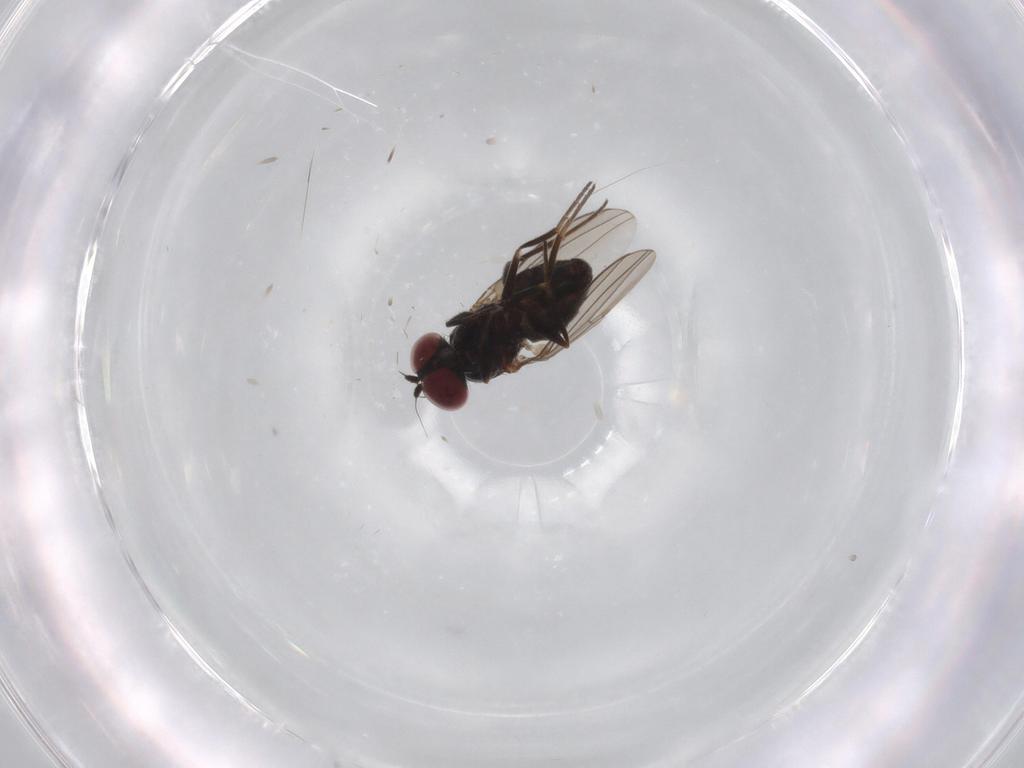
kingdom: Animalia
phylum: Arthropoda
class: Insecta
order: Diptera
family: Dolichopodidae
